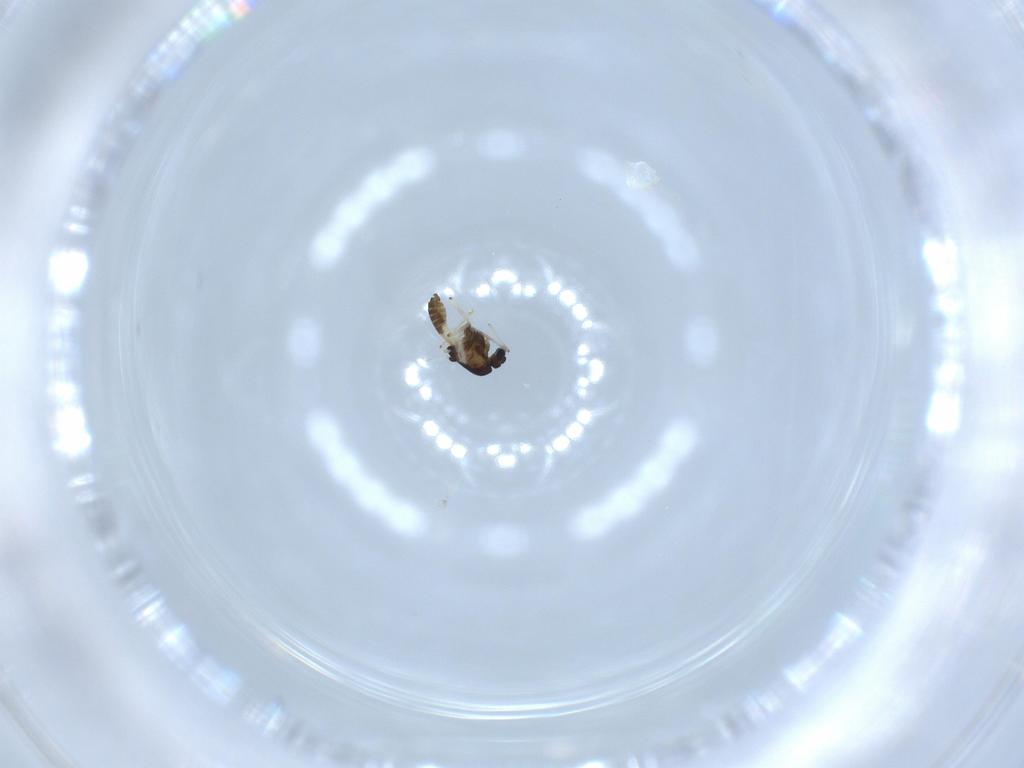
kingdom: Animalia
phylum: Arthropoda
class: Insecta
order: Diptera
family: Chironomidae
